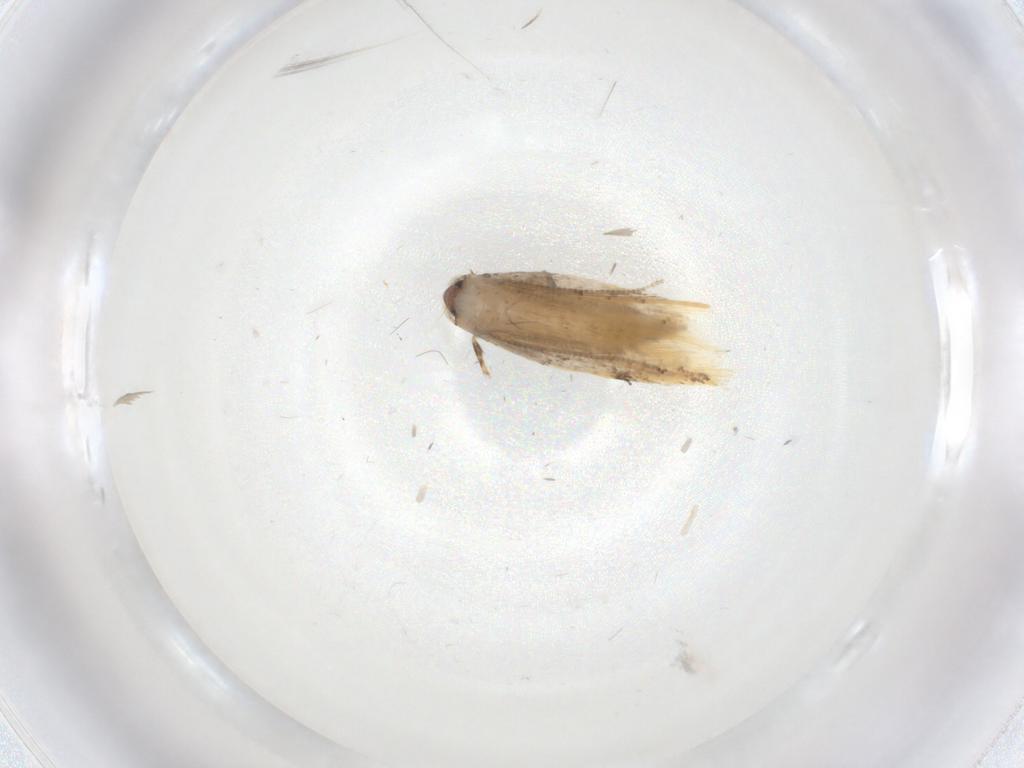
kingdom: Animalia
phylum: Arthropoda
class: Insecta
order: Lepidoptera
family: Tineidae
